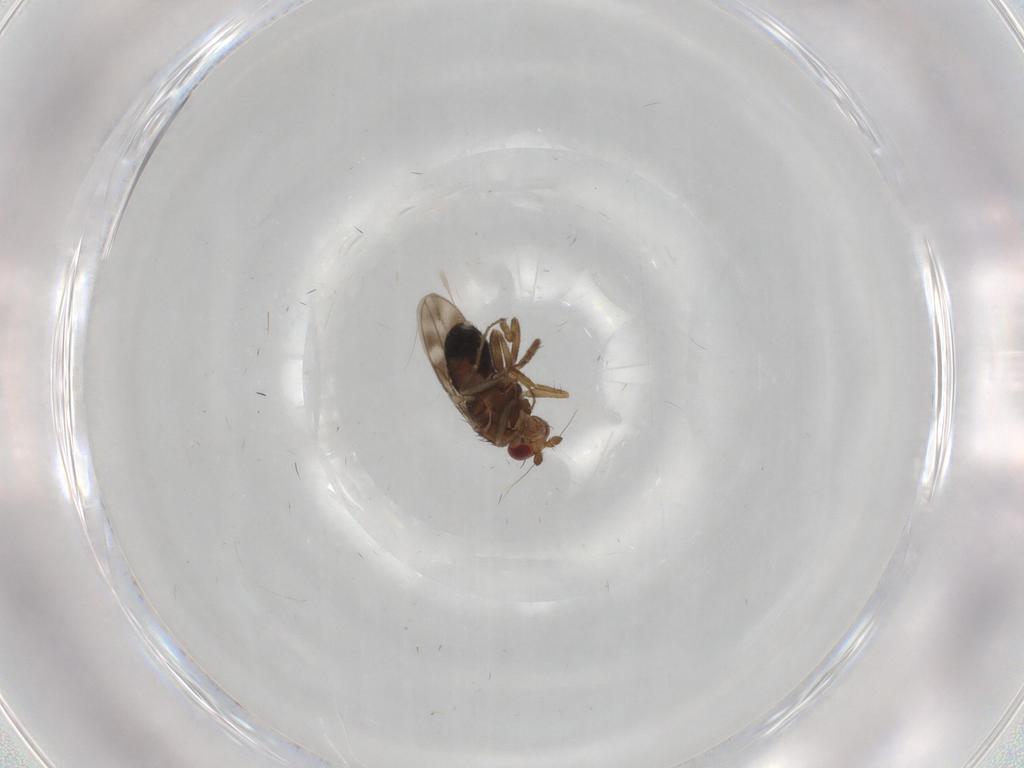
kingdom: Animalia
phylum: Arthropoda
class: Insecta
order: Diptera
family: Sphaeroceridae
